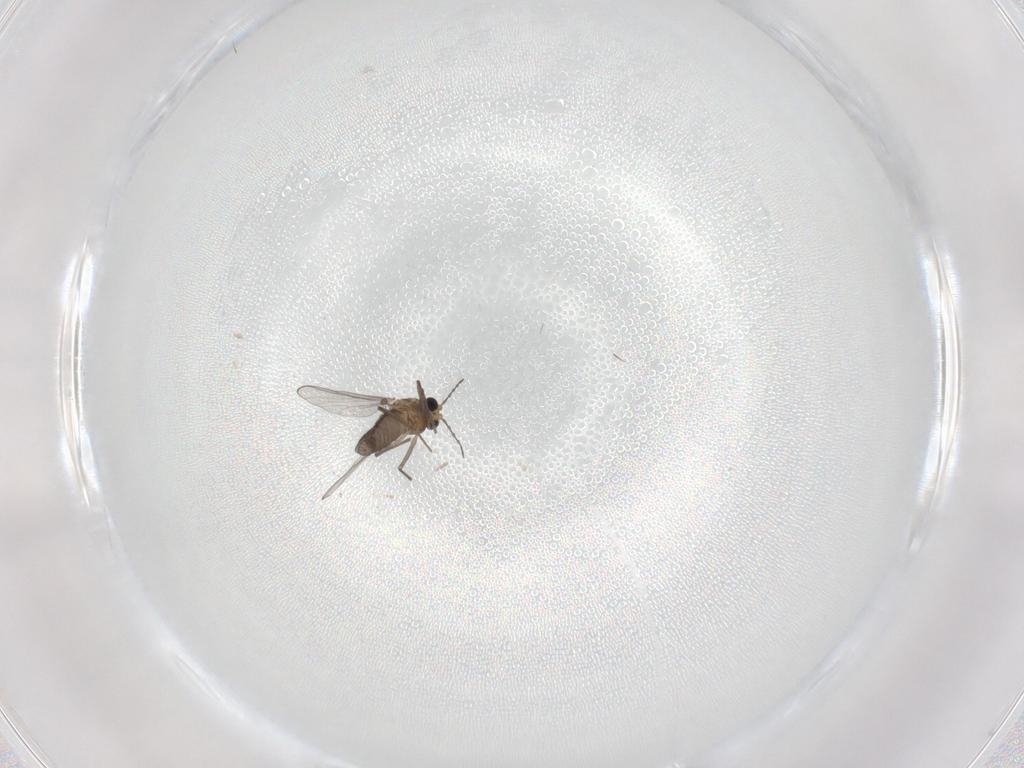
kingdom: Animalia
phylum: Arthropoda
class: Insecta
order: Diptera
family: Chironomidae
